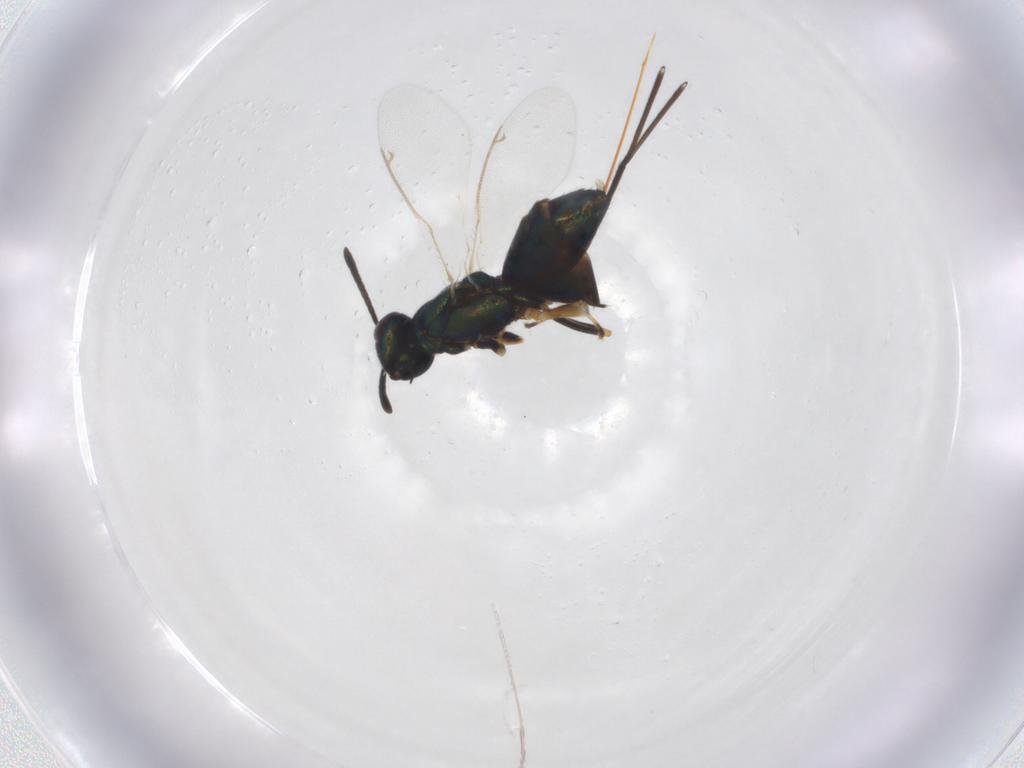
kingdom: Animalia
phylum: Arthropoda
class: Insecta
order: Hymenoptera
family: Eupelmidae
